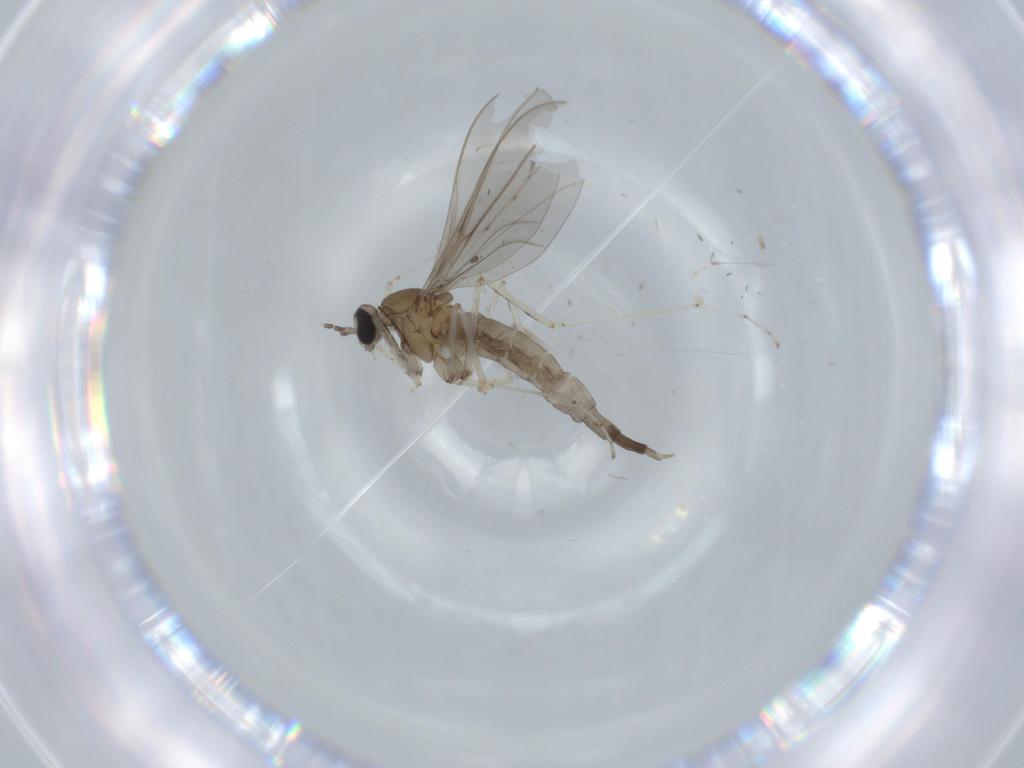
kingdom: Animalia
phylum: Arthropoda
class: Insecta
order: Diptera
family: Cecidomyiidae
